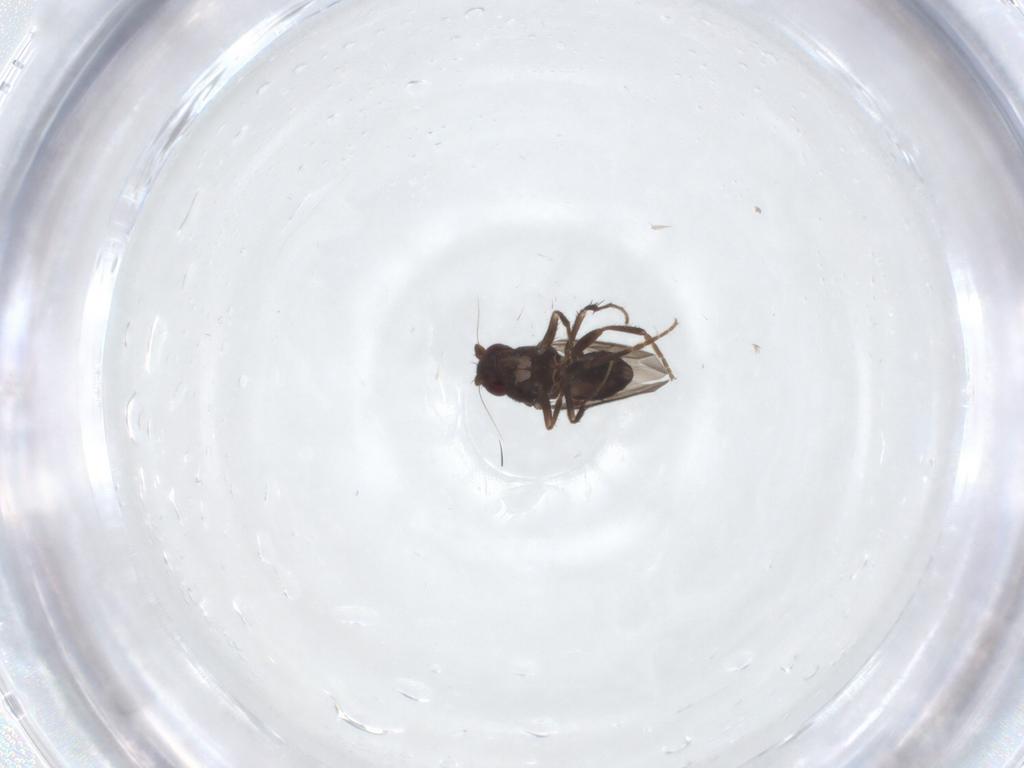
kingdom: Animalia
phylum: Arthropoda
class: Insecta
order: Diptera
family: Sphaeroceridae
